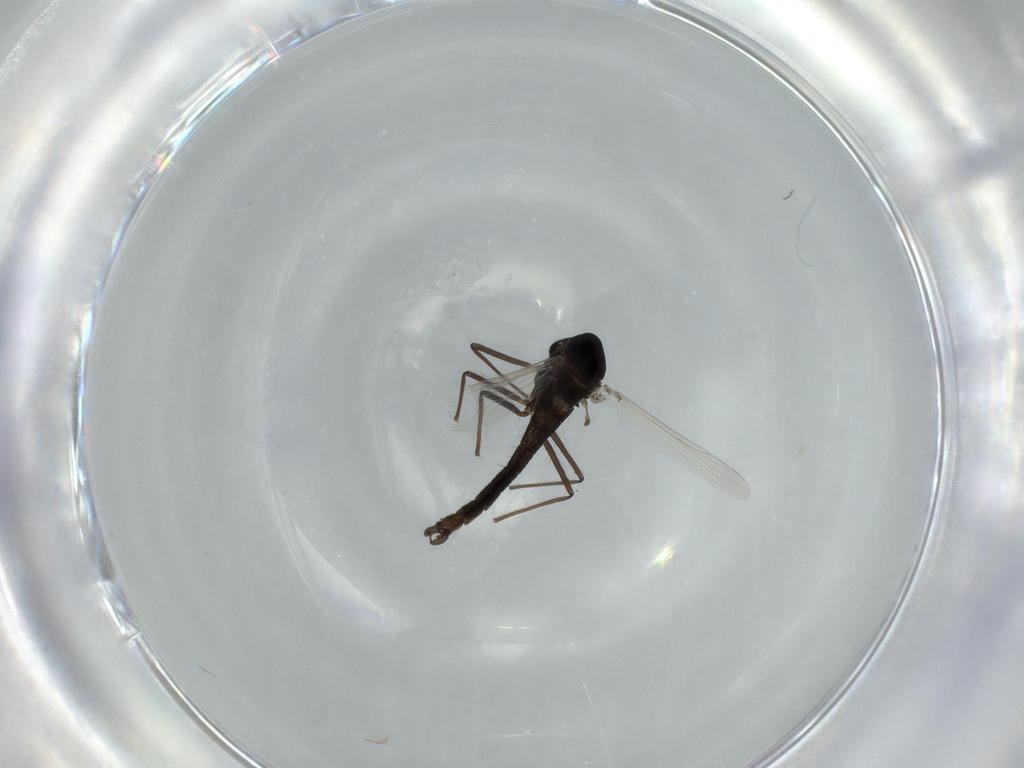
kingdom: Animalia
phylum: Arthropoda
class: Insecta
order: Diptera
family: Chironomidae
